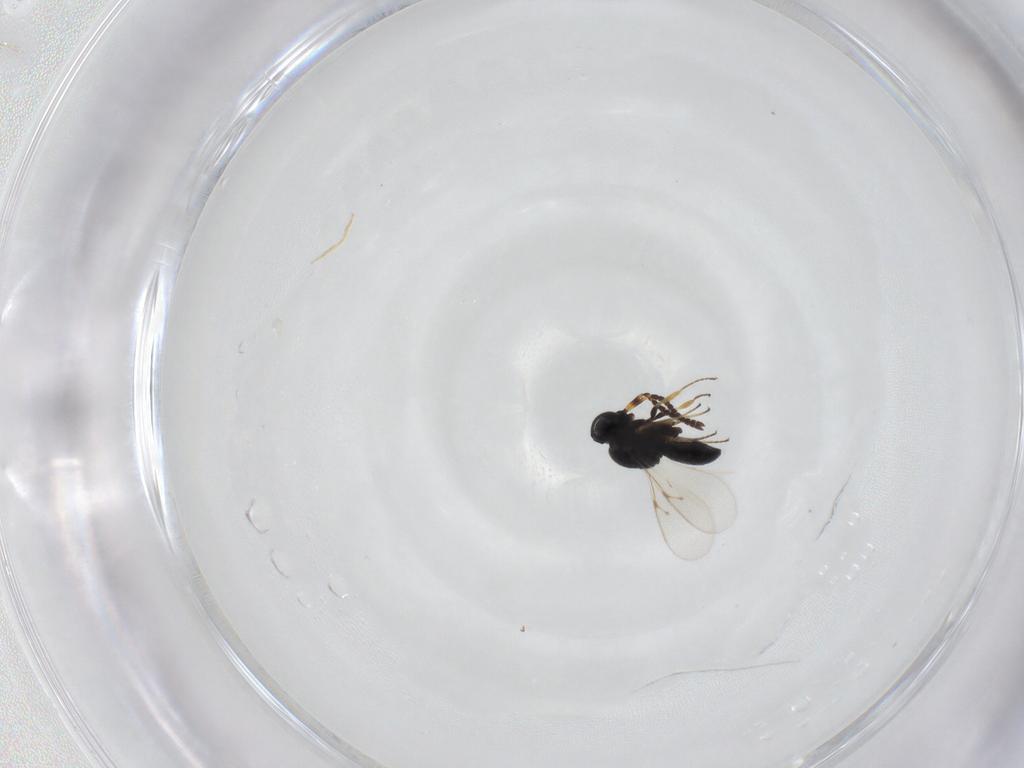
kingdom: Animalia
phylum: Arthropoda
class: Insecta
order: Hymenoptera
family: Scelionidae
